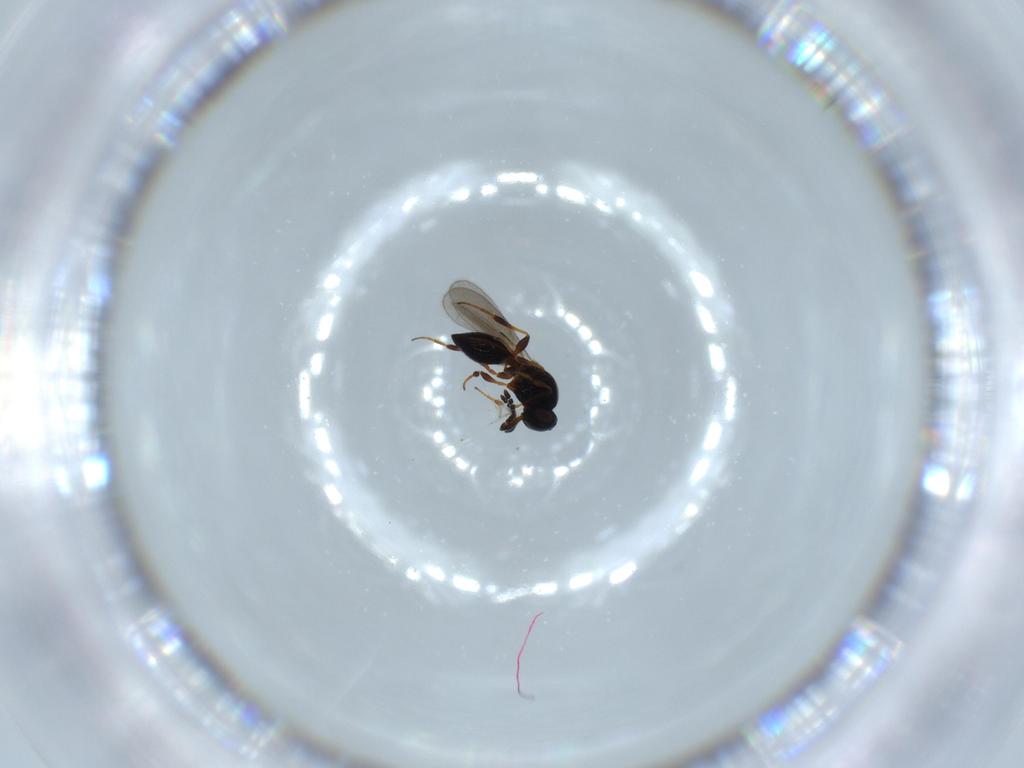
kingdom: Animalia
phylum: Arthropoda
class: Insecta
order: Hymenoptera
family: Platygastridae
